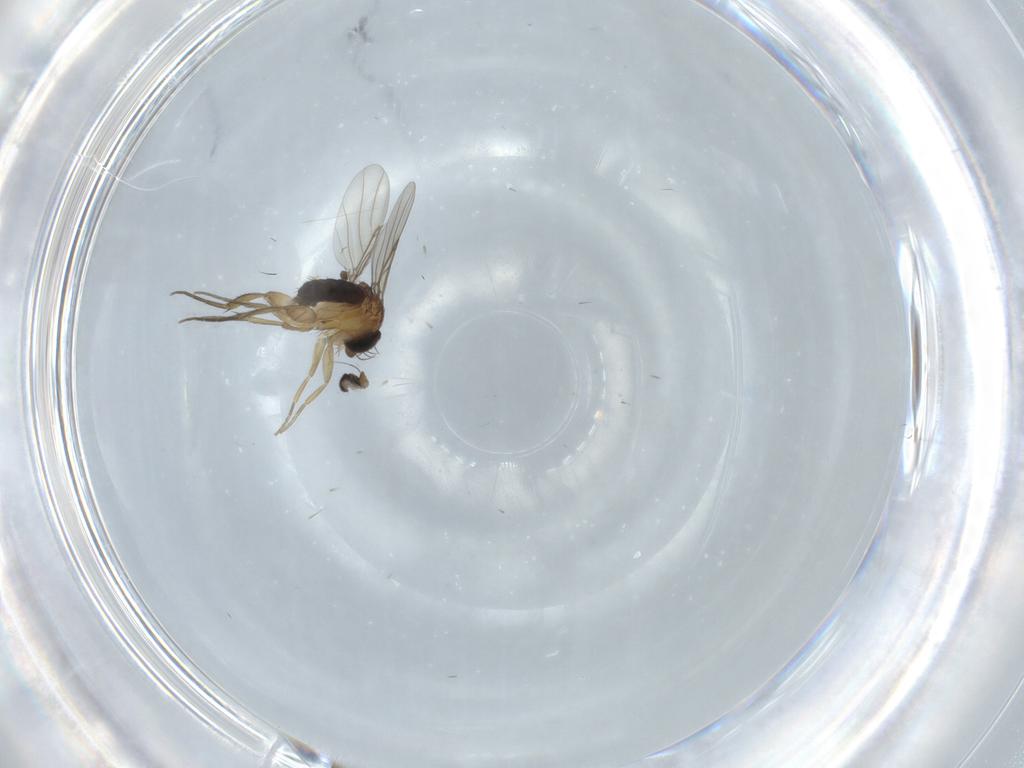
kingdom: Animalia
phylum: Arthropoda
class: Insecta
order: Diptera
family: Phoridae
